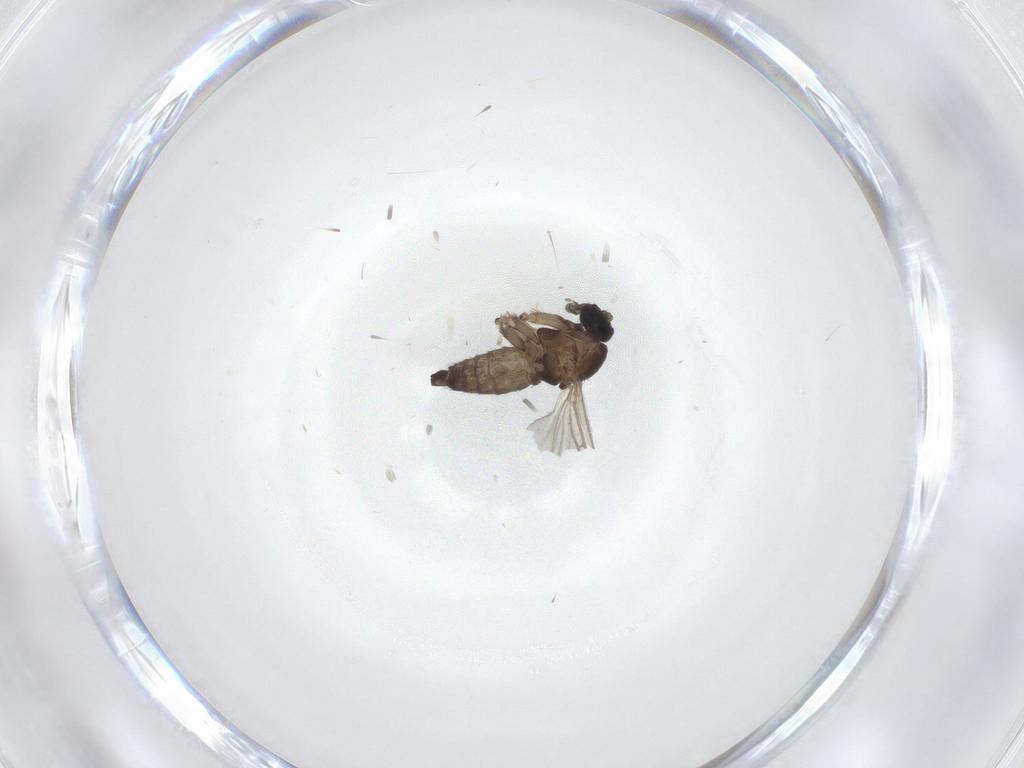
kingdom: Animalia
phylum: Arthropoda
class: Insecta
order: Diptera
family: Sciaridae
